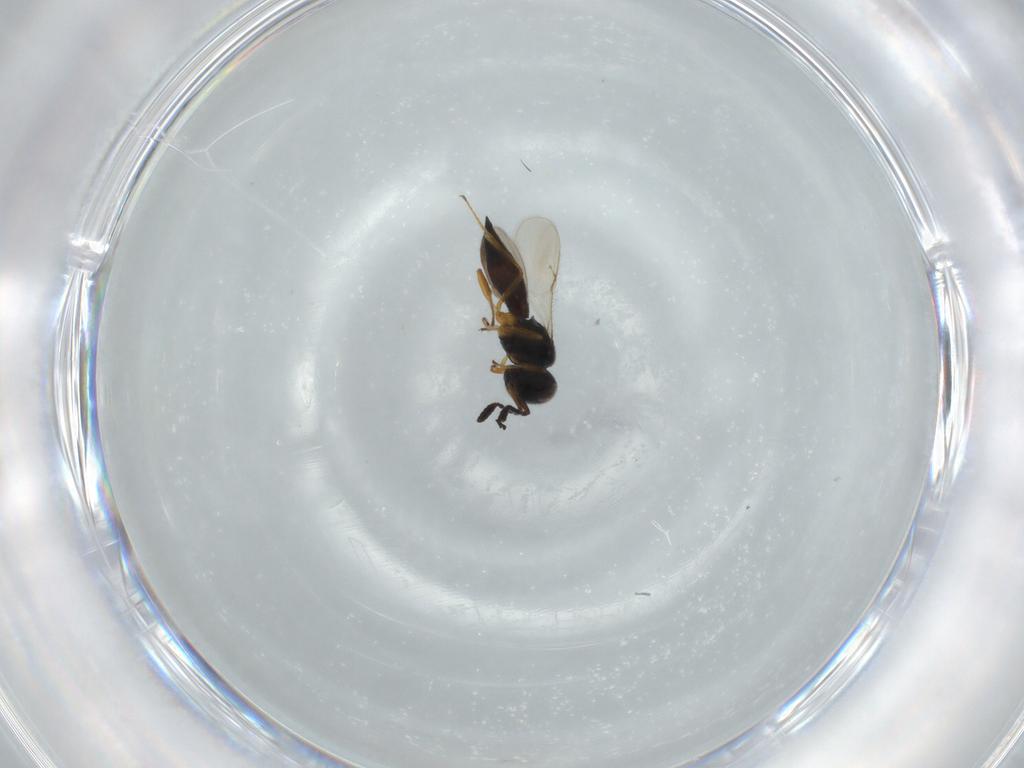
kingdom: Animalia
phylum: Arthropoda
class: Insecta
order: Hymenoptera
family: Scelionidae
